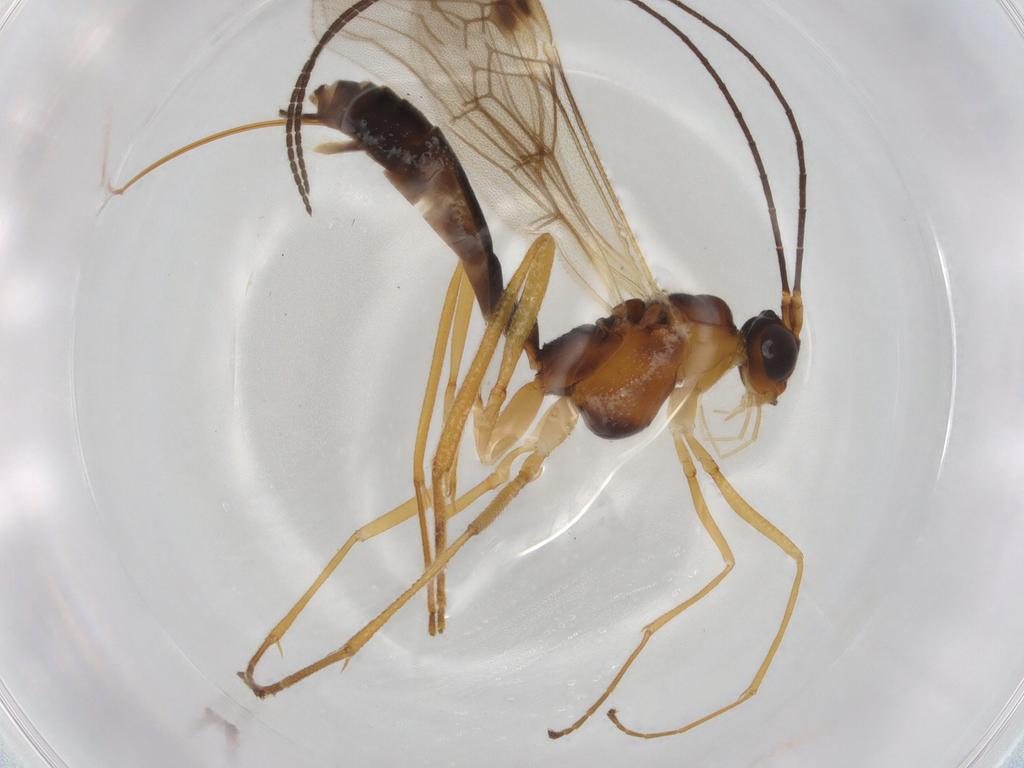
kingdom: Animalia
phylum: Arthropoda
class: Insecta
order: Hymenoptera
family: Braconidae
